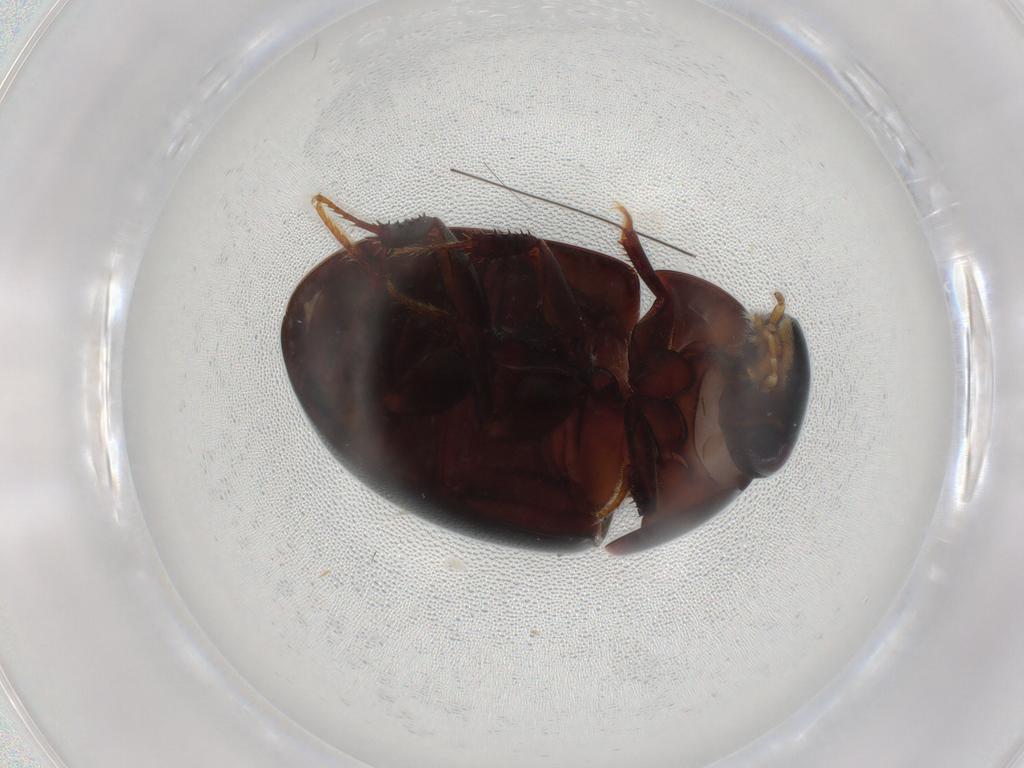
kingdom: Animalia
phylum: Arthropoda
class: Insecta
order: Coleoptera
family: Hydrophilidae
